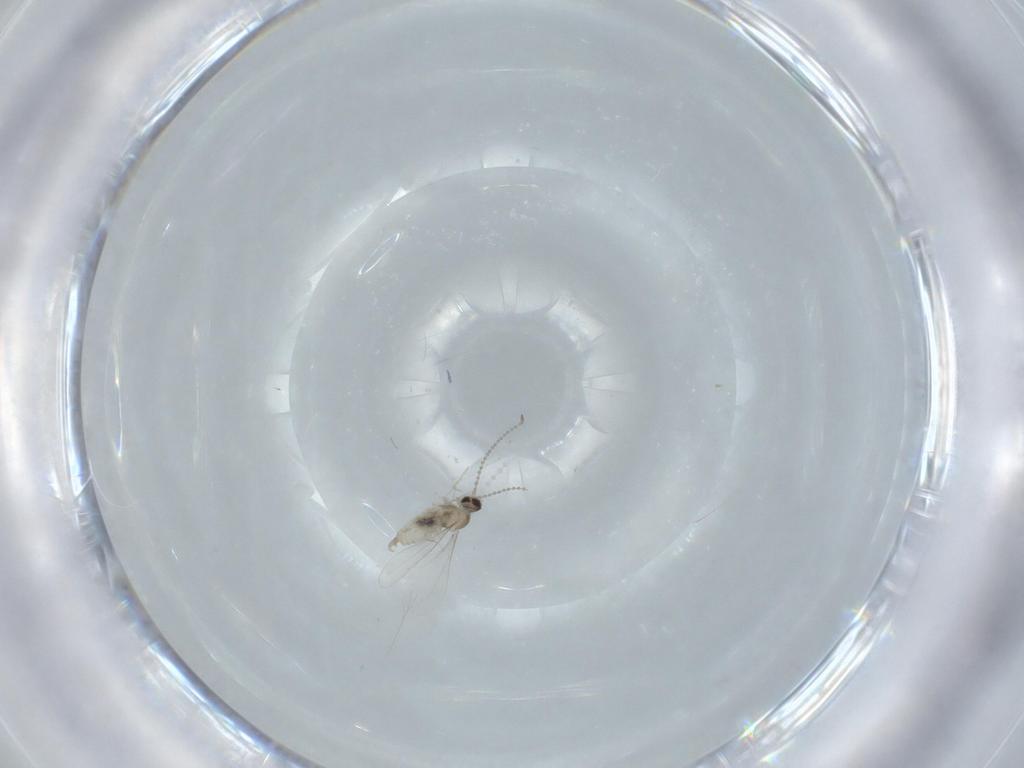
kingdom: Animalia
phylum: Arthropoda
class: Insecta
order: Diptera
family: Cecidomyiidae
